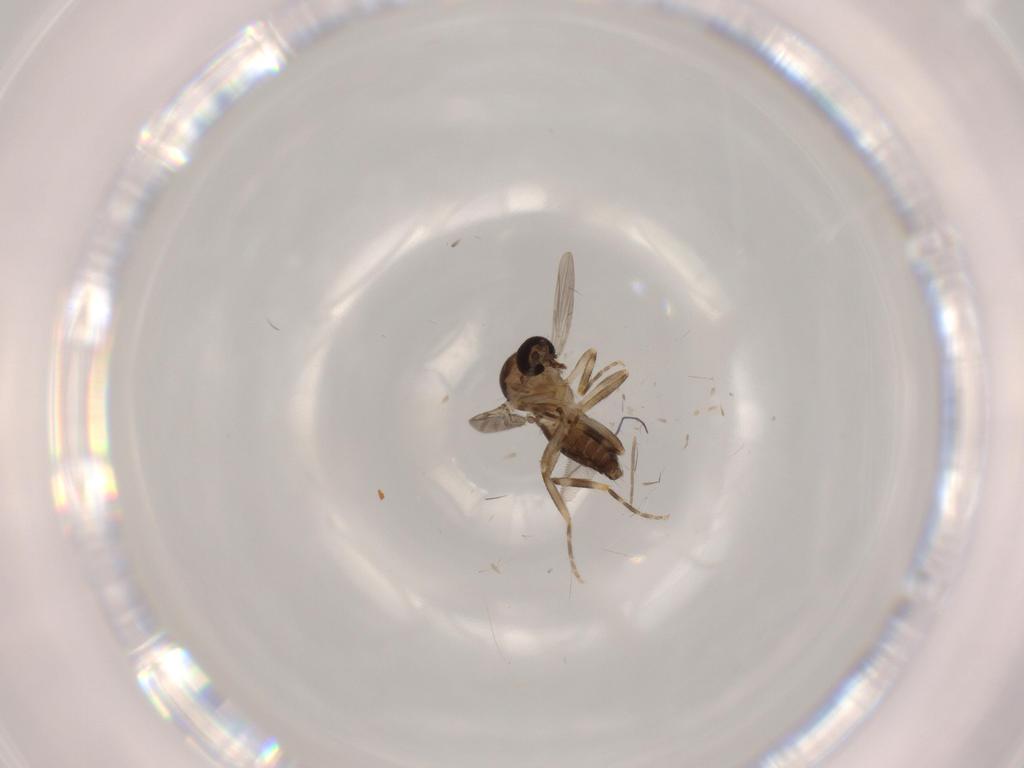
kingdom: Animalia
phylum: Arthropoda
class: Insecta
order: Diptera
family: Ceratopogonidae
